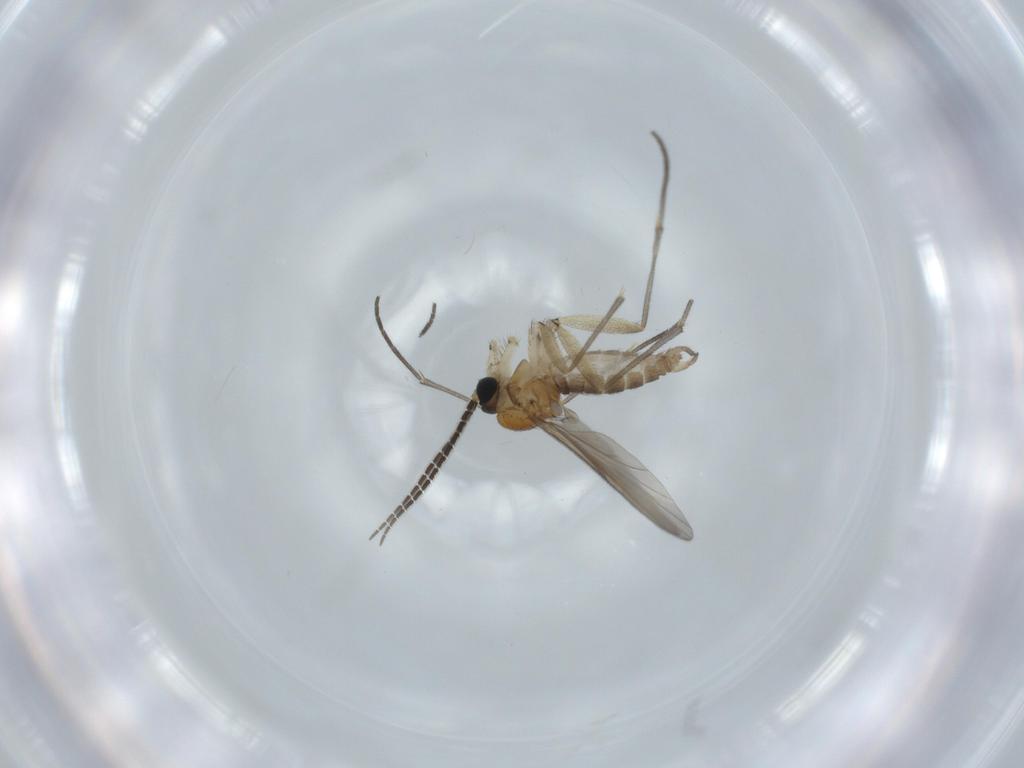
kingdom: Animalia
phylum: Arthropoda
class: Insecta
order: Diptera
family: Sciaridae
